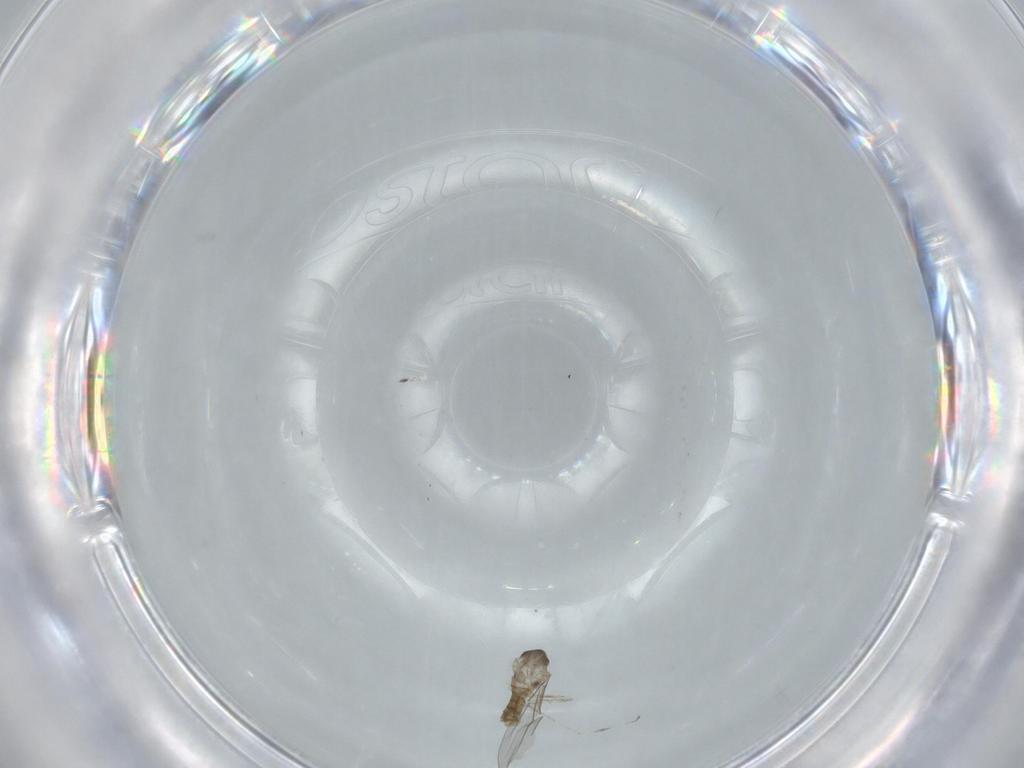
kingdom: Animalia
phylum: Arthropoda
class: Insecta
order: Diptera
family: Cecidomyiidae
